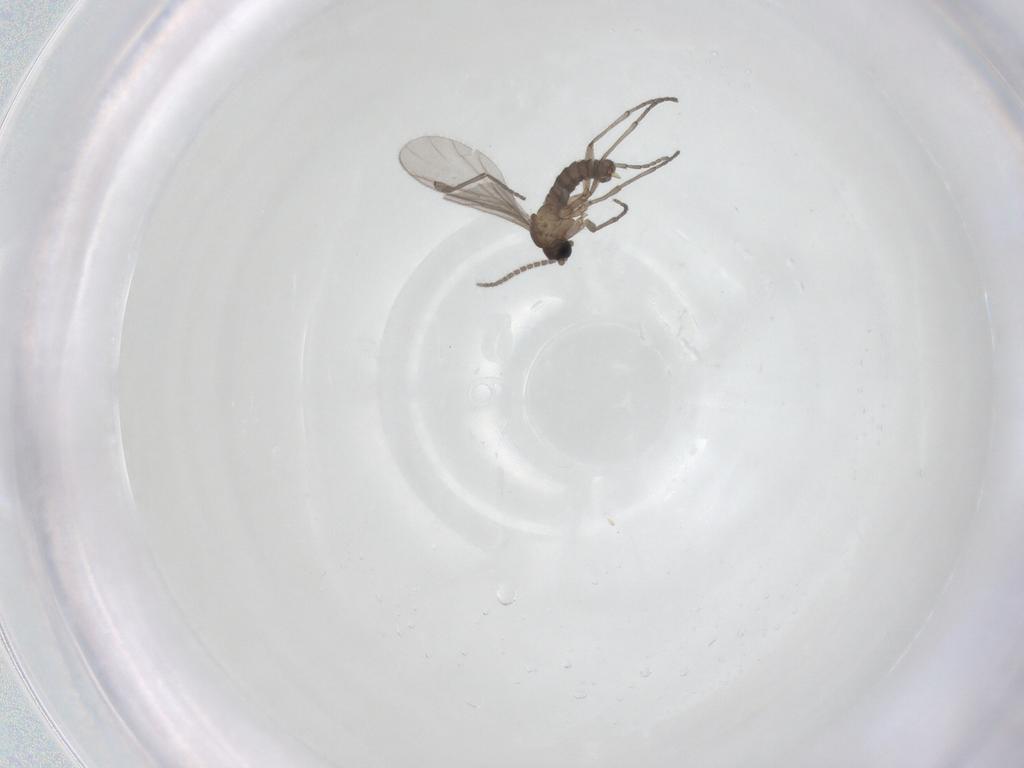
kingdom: Animalia
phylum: Arthropoda
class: Insecta
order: Diptera
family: Sciaridae
